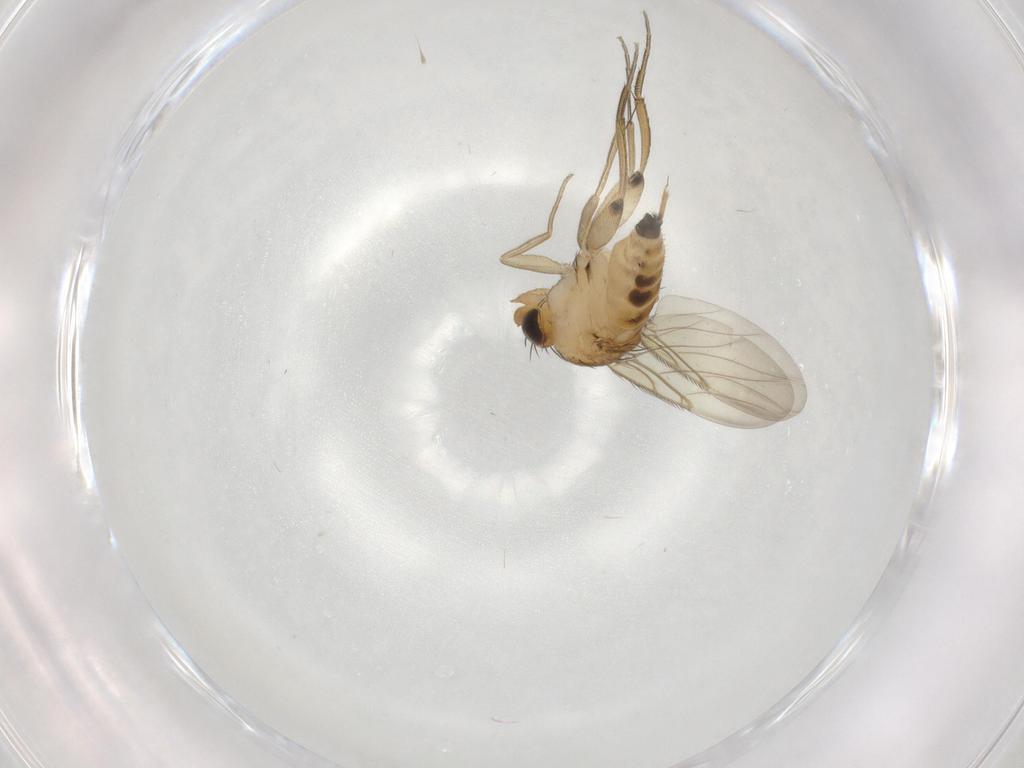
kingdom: Animalia
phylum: Arthropoda
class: Insecta
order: Diptera
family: Phoridae
